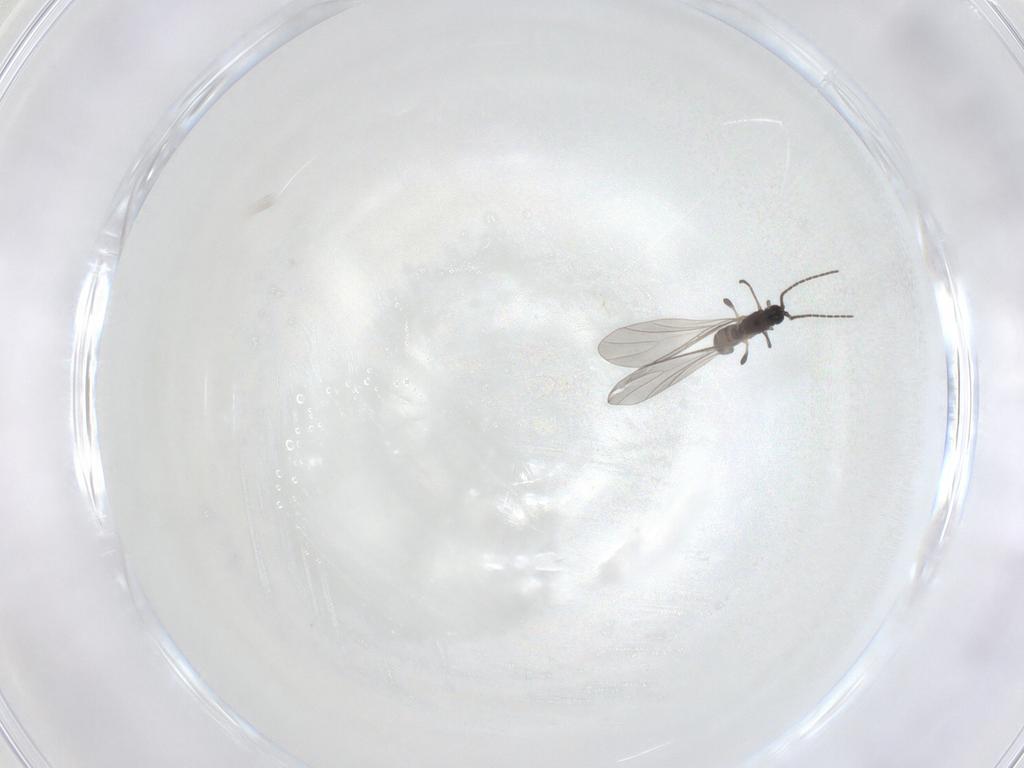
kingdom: Animalia
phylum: Arthropoda
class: Insecta
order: Diptera
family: Sciaridae
